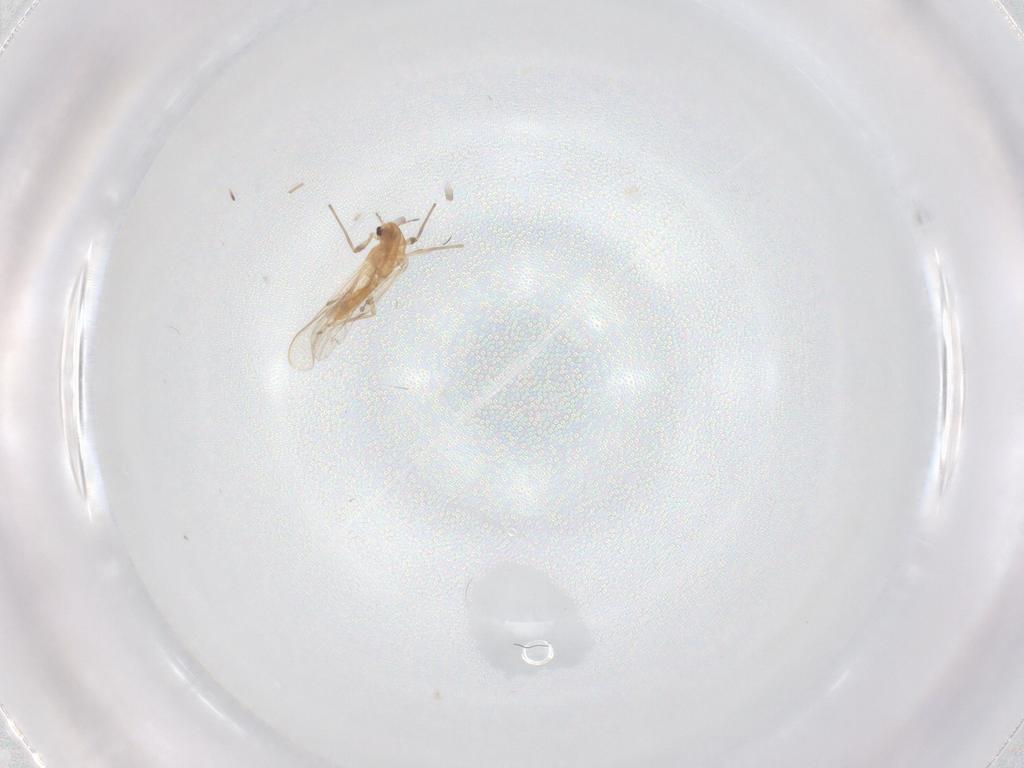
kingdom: Animalia
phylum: Arthropoda
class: Insecta
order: Diptera
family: Chironomidae
